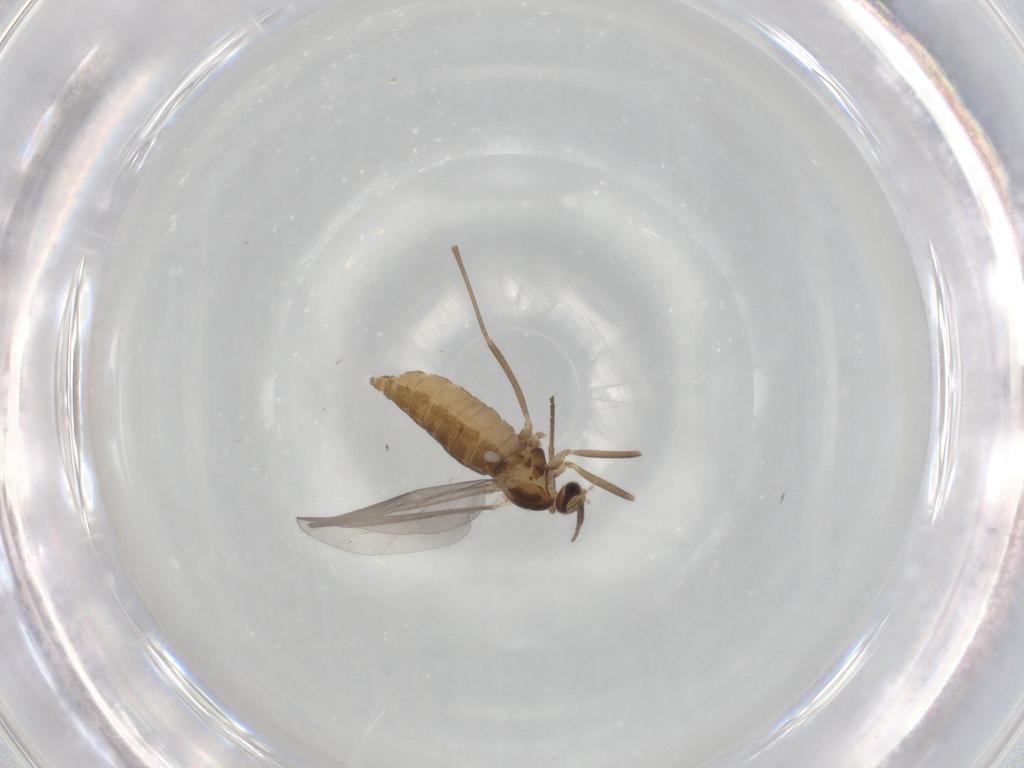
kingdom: Animalia
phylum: Arthropoda
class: Insecta
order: Diptera
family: Cecidomyiidae
